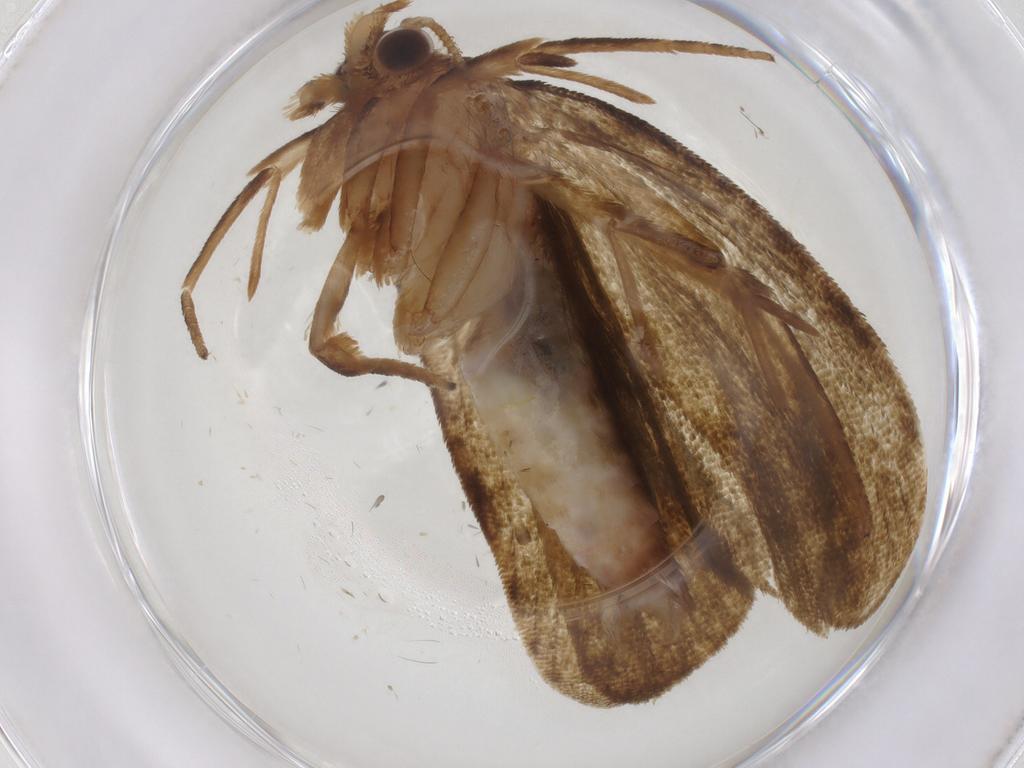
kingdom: Animalia
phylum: Arthropoda
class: Insecta
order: Lepidoptera
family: Geometridae
